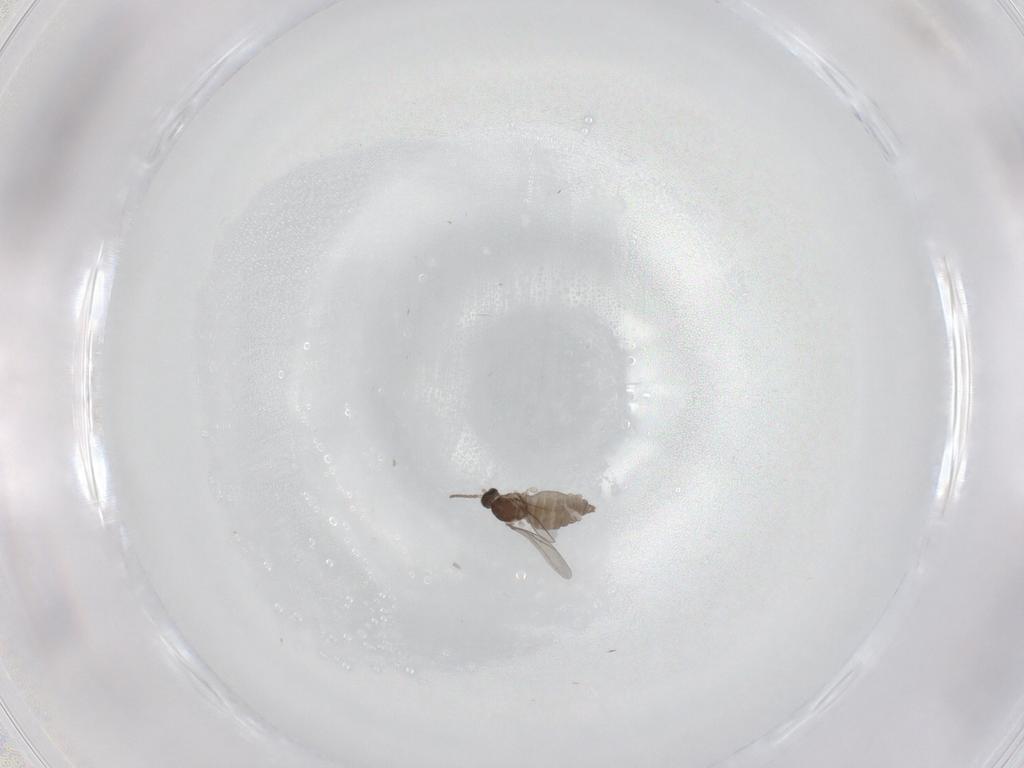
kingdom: Animalia
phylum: Arthropoda
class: Insecta
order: Diptera
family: Cecidomyiidae
